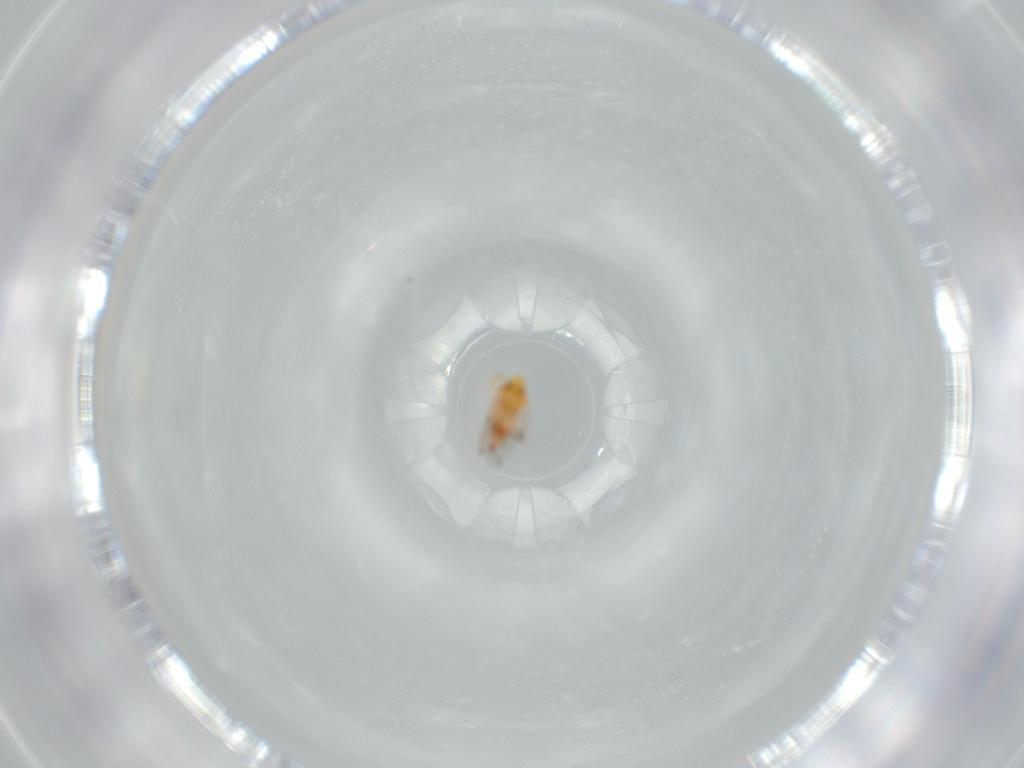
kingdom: Animalia
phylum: Arthropoda
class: Insecta
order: Hemiptera
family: Aleyrodidae
